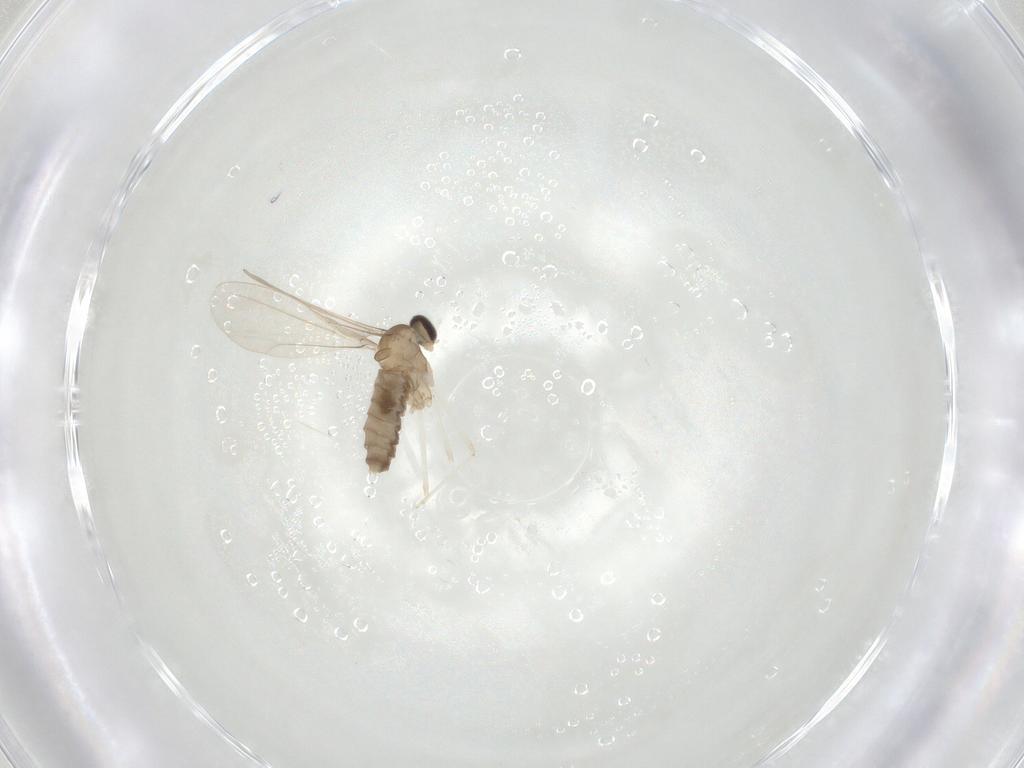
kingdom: Animalia
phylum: Arthropoda
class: Insecta
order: Diptera
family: Cecidomyiidae
